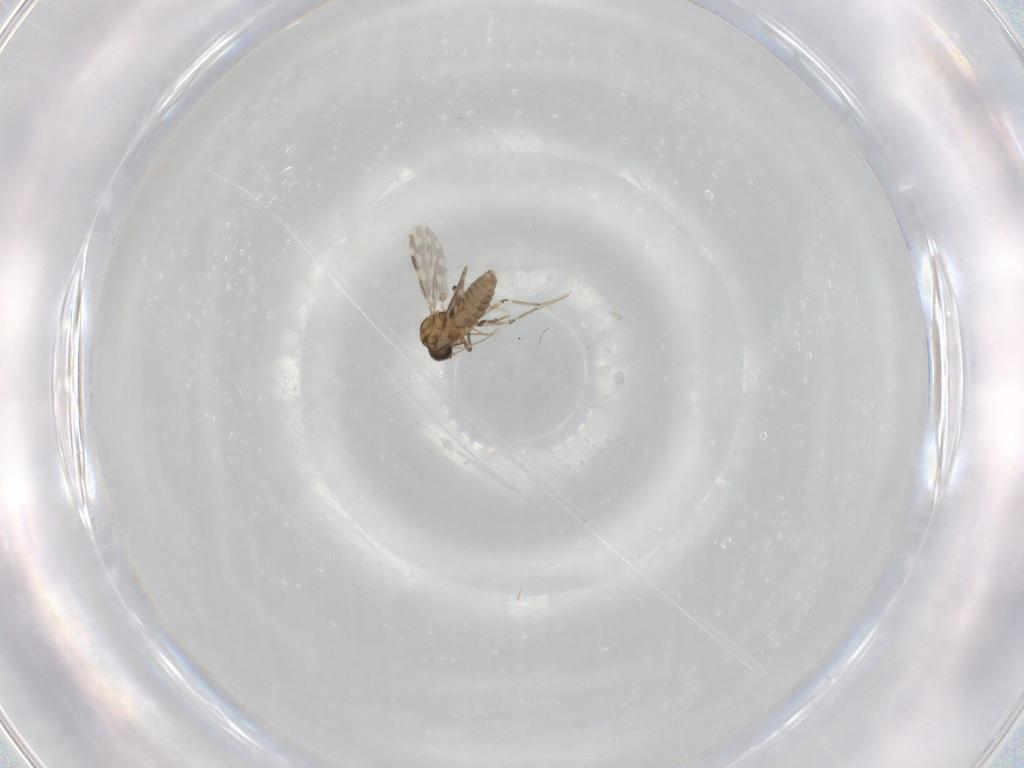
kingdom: Animalia
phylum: Arthropoda
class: Insecta
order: Diptera
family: Ceratopogonidae
